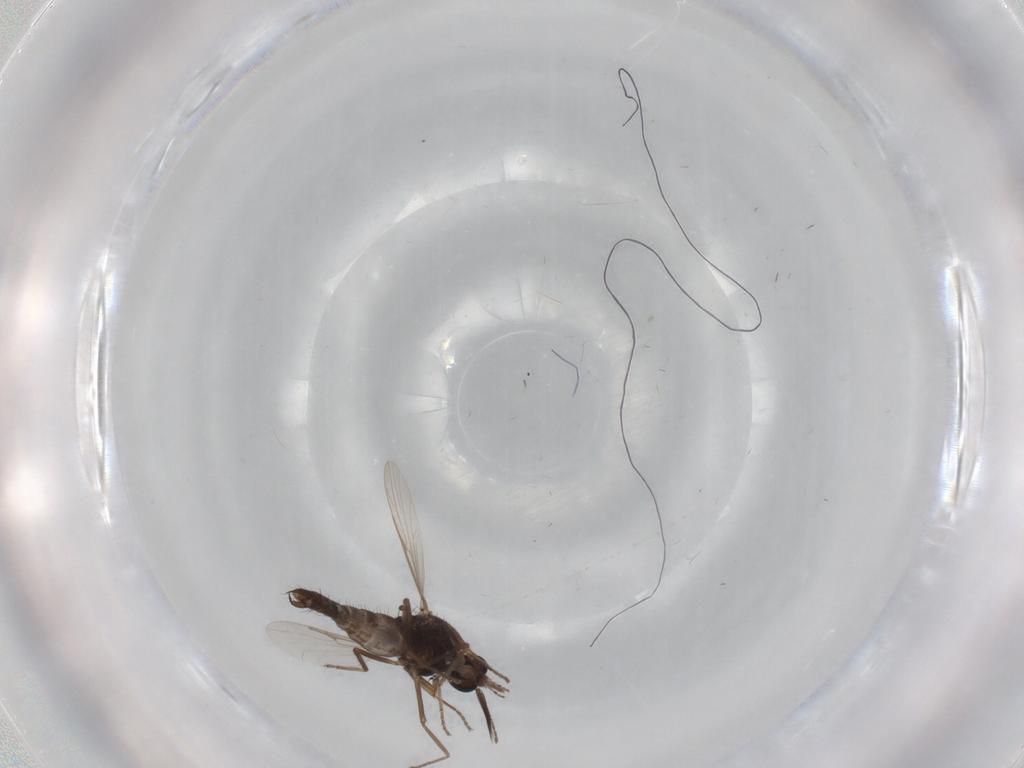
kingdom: Animalia
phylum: Arthropoda
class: Insecta
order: Diptera
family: Ceratopogonidae
